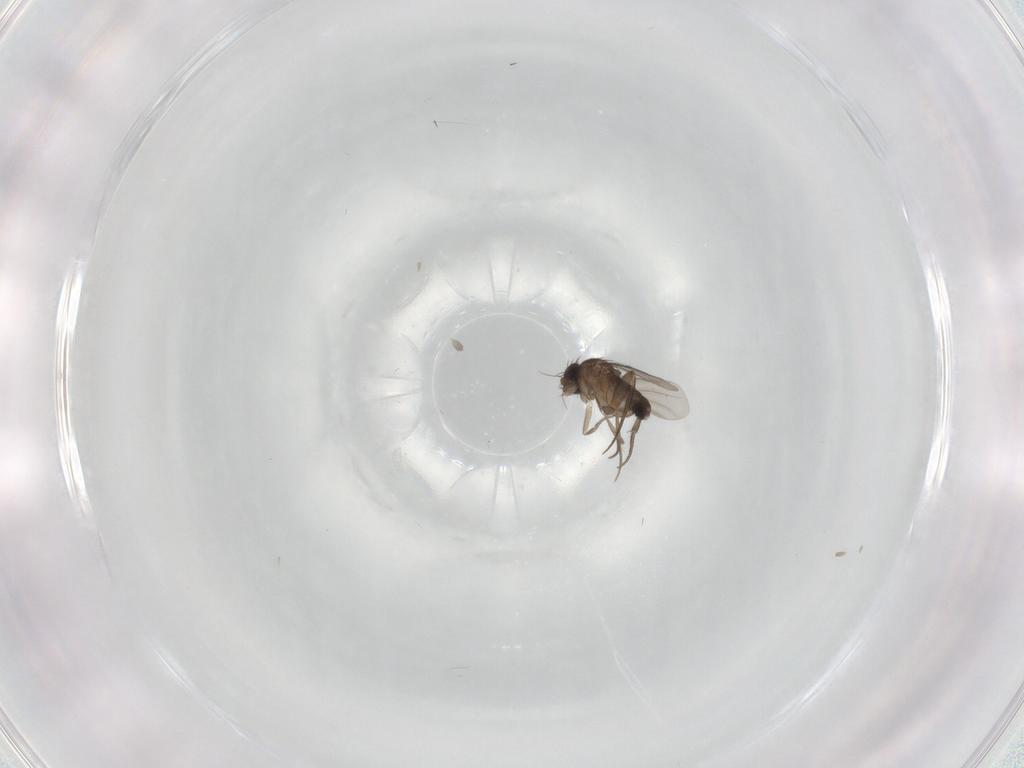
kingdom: Animalia
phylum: Arthropoda
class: Insecta
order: Diptera
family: Phoridae
